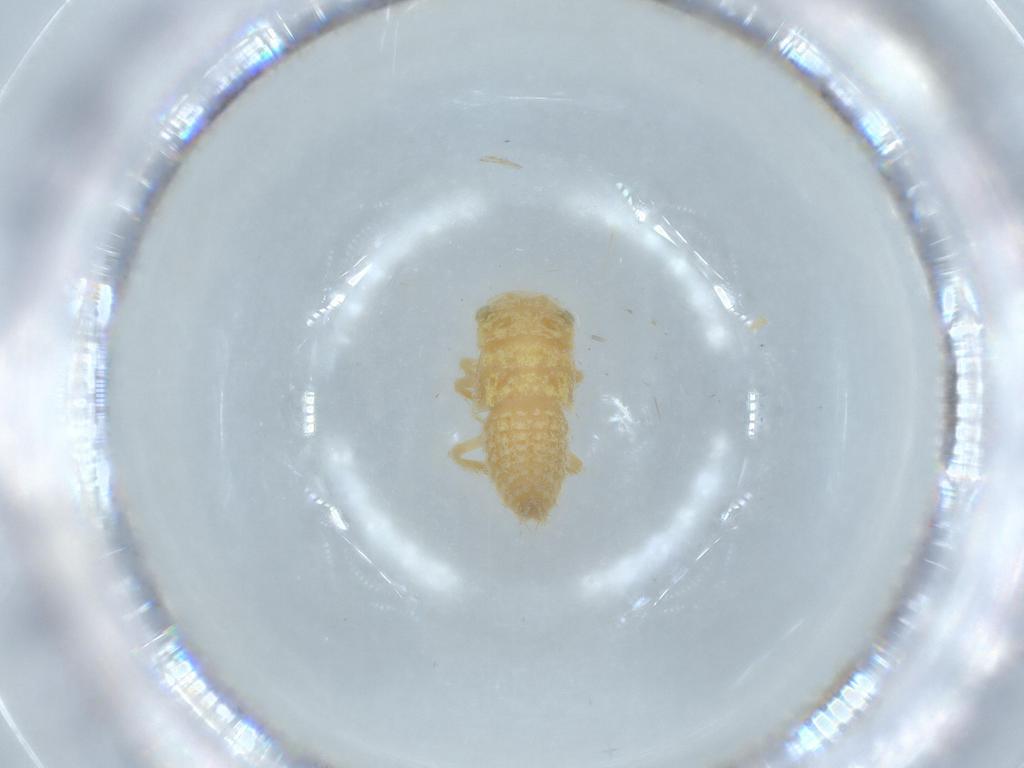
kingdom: Animalia
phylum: Arthropoda
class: Insecta
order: Hemiptera
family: Cicadellidae
